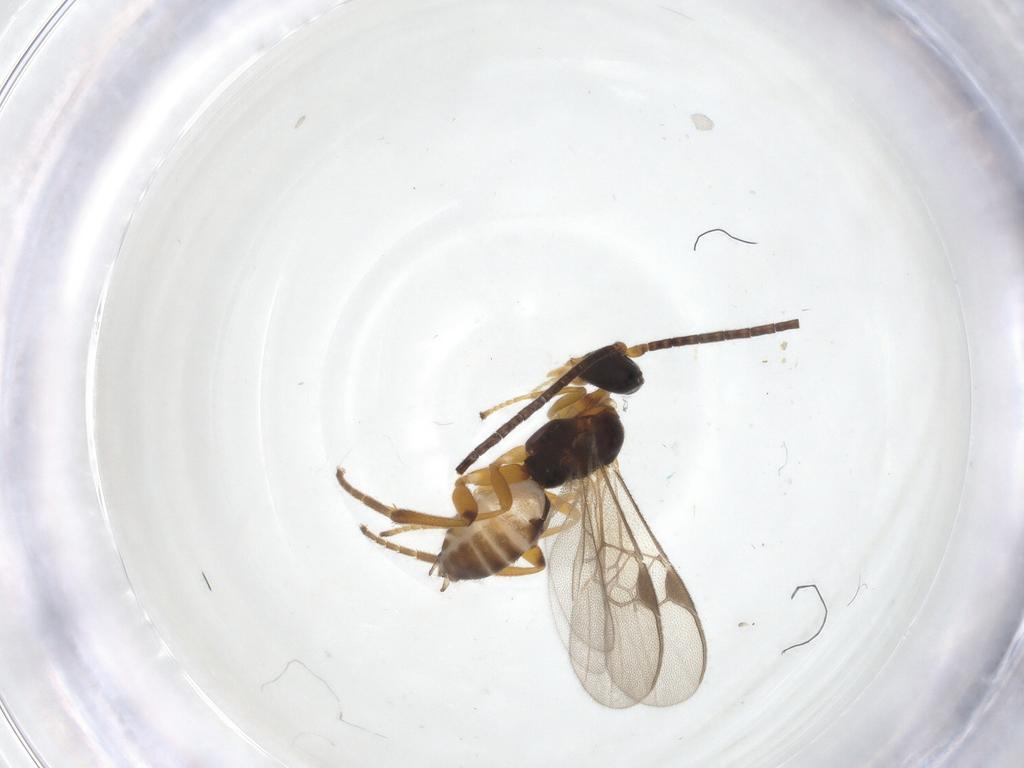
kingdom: Animalia
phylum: Arthropoda
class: Insecta
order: Hymenoptera
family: Braconidae
